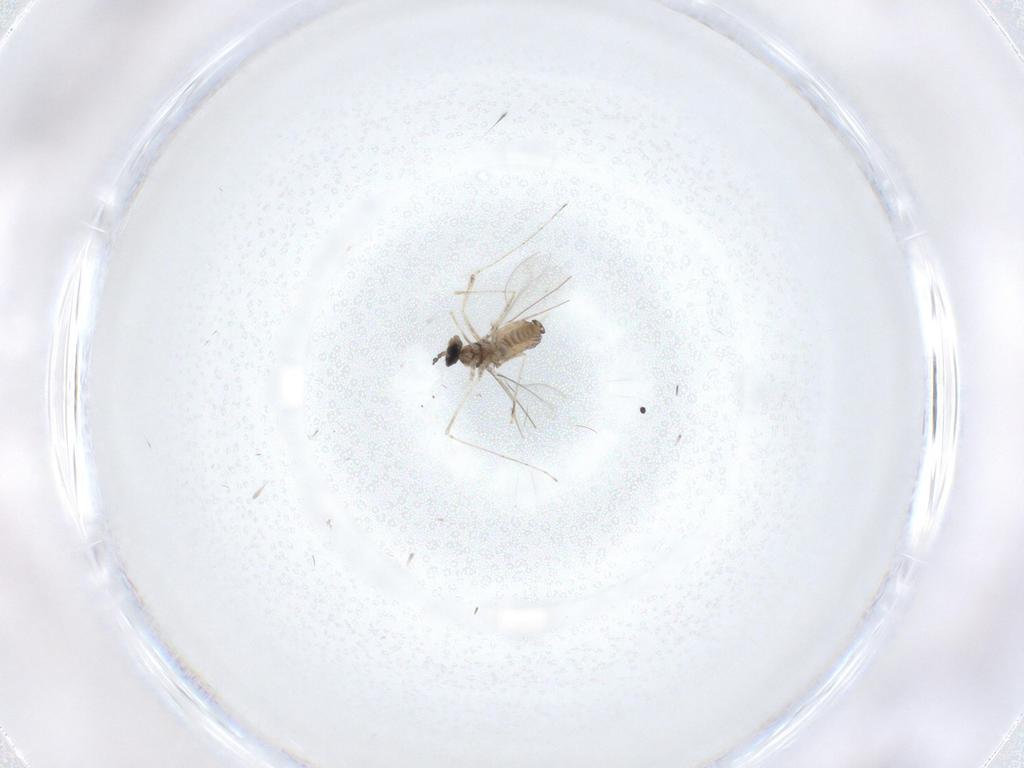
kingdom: Animalia
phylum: Arthropoda
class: Insecta
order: Diptera
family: Cecidomyiidae
